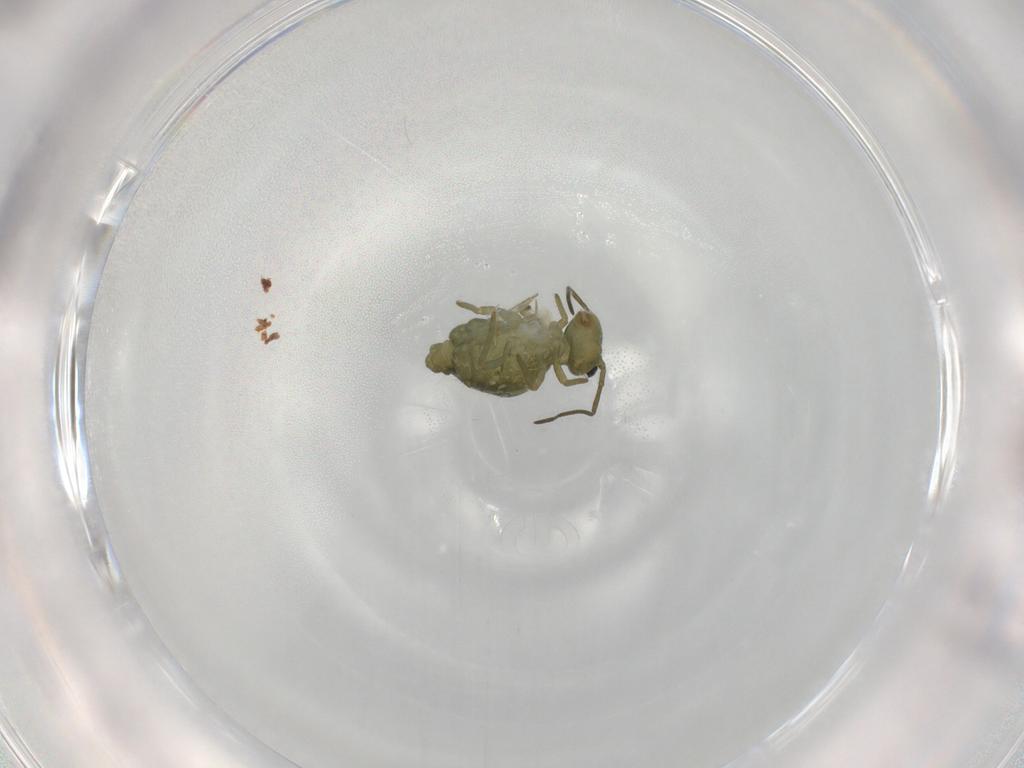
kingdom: Animalia
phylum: Arthropoda
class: Collembola
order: Symphypleona
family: Sminthuridae
